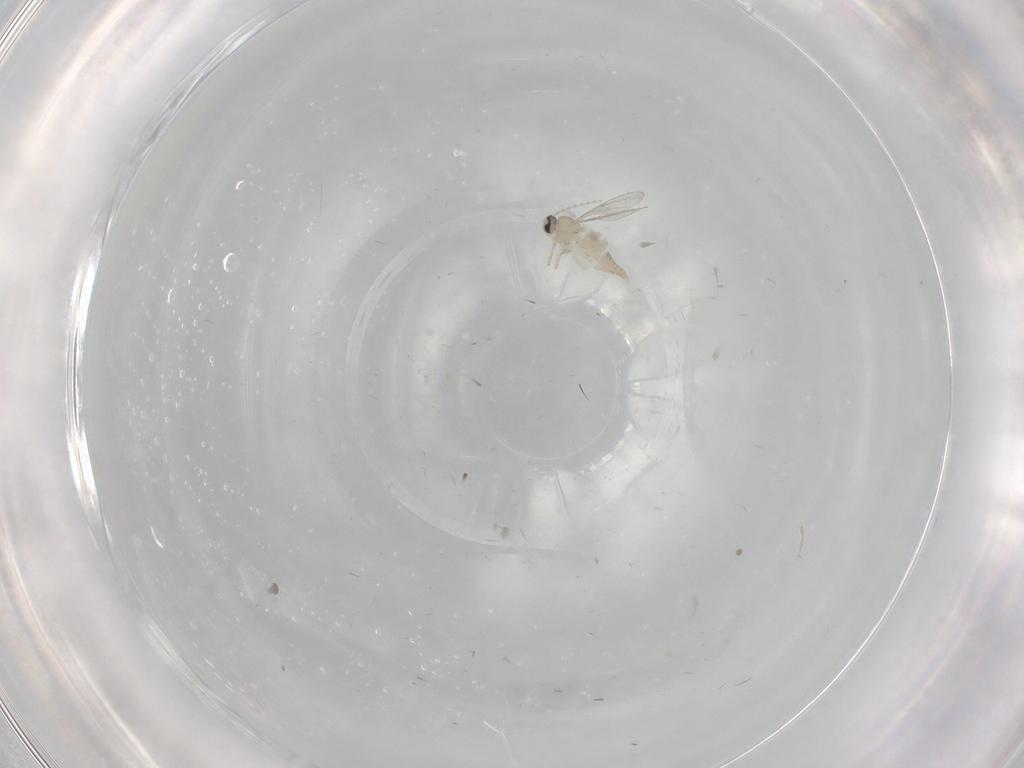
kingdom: Animalia
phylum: Arthropoda
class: Insecta
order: Diptera
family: Cecidomyiidae
